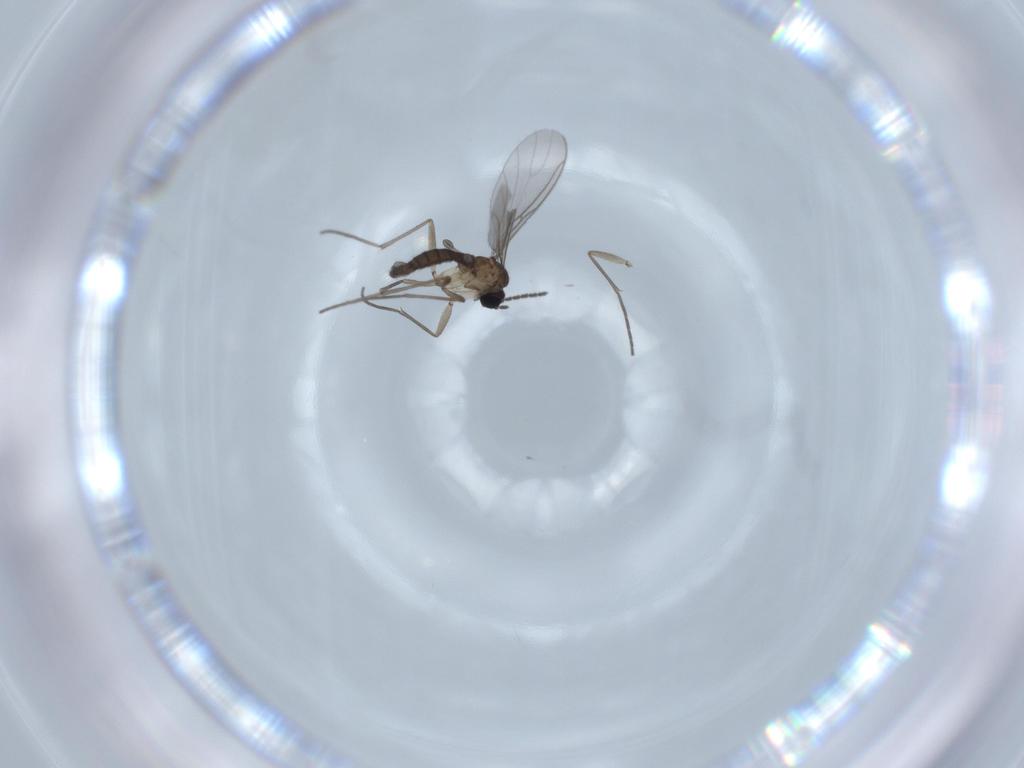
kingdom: Animalia
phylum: Arthropoda
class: Insecta
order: Diptera
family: Sciaridae
